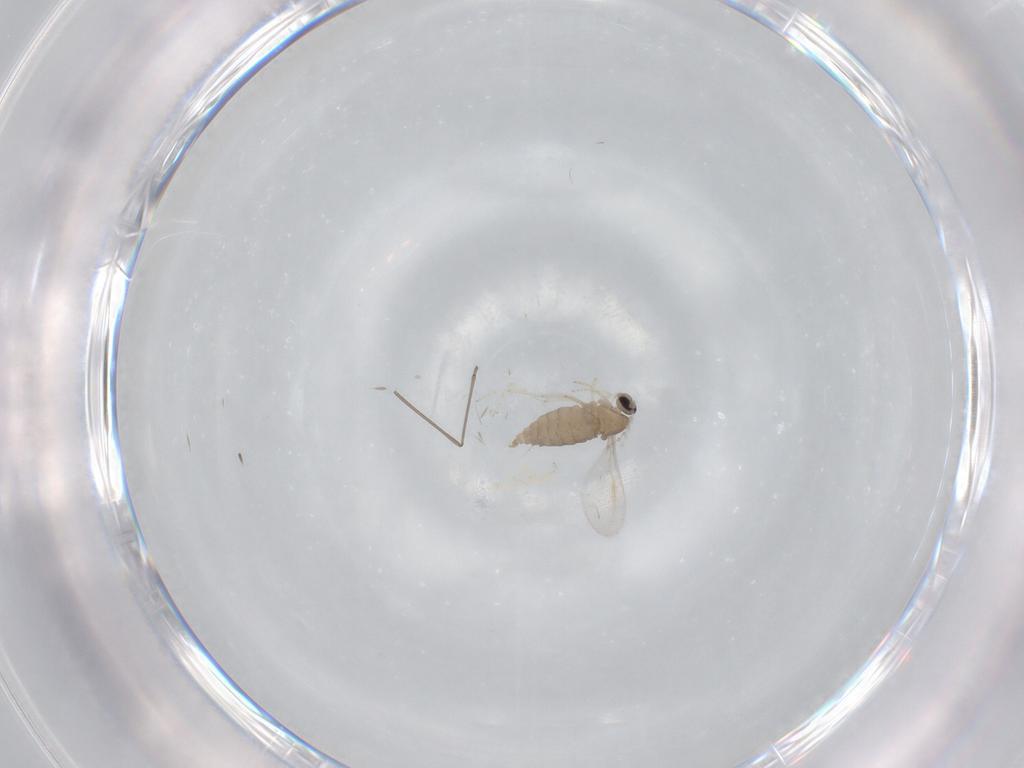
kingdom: Animalia
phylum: Arthropoda
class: Insecta
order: Diptera
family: Cecidomyiidae
